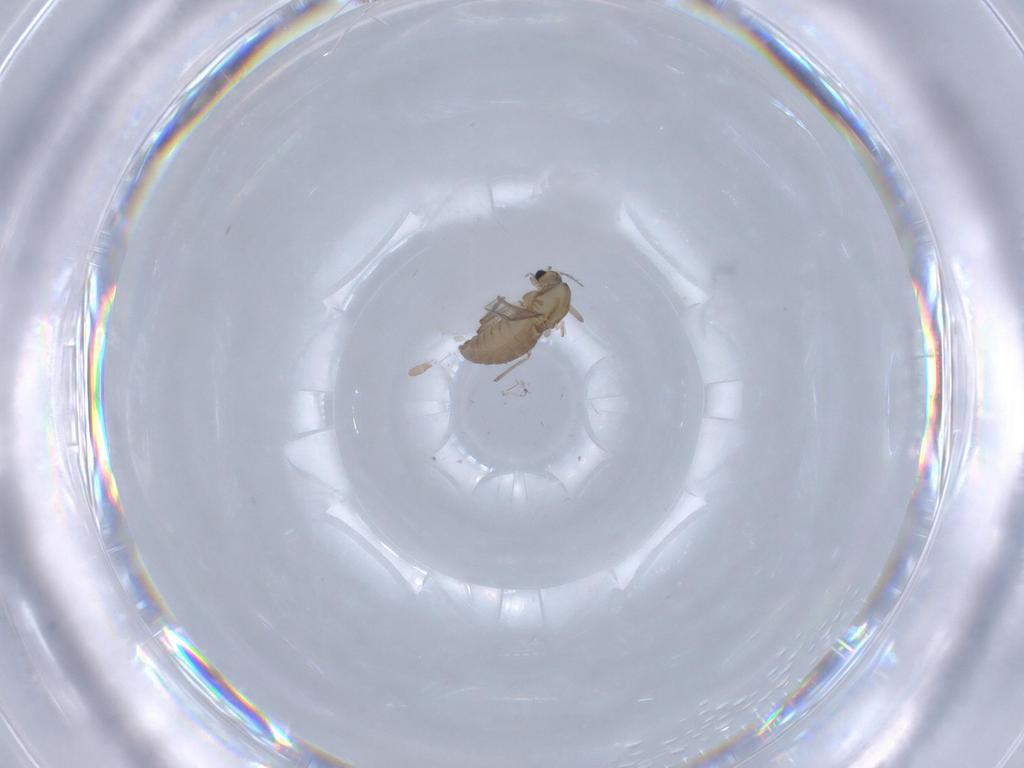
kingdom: Animalia
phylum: Arthropoda
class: Insecta
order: Diptera
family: Chironomidae
